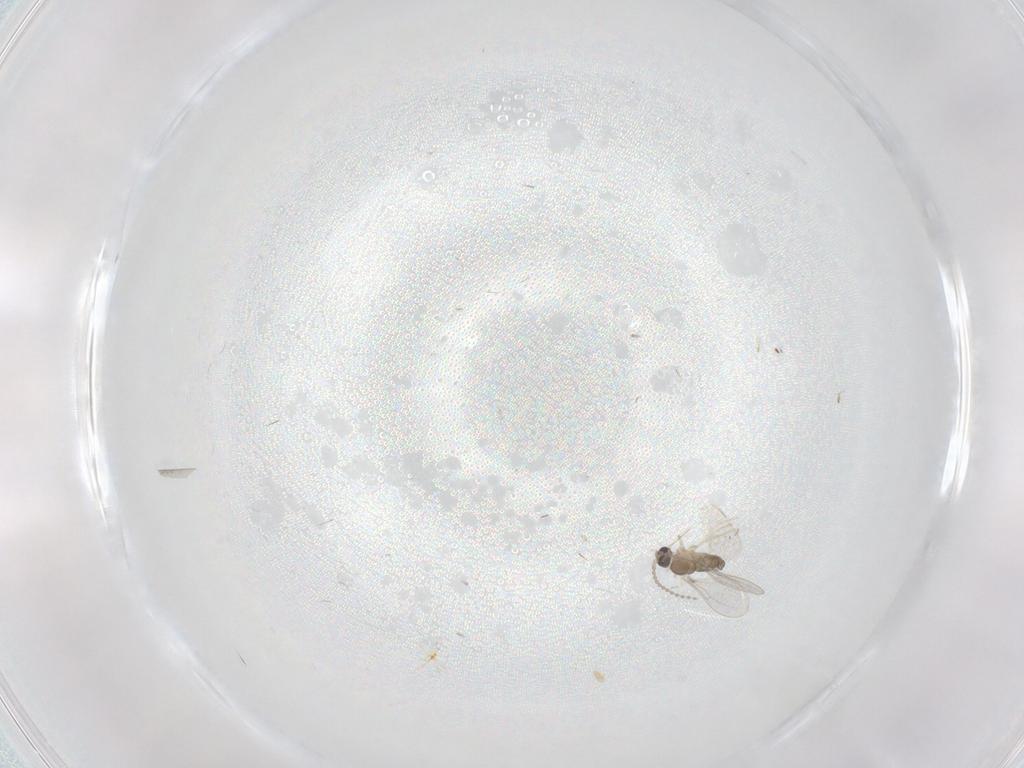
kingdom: Animalia
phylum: Arthropoda
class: Insecta
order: Diptera
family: Cecidomyiidae
